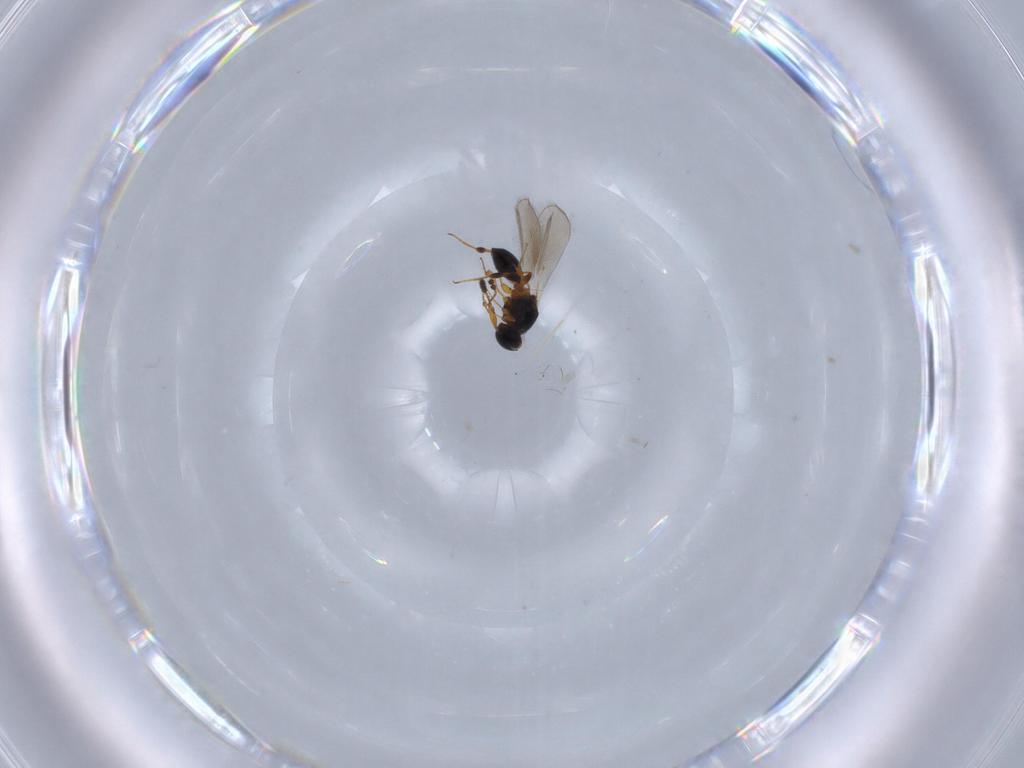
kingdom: Animalia
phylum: Arthropoda
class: Insecta
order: Hymenoptera
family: Platygastridae
